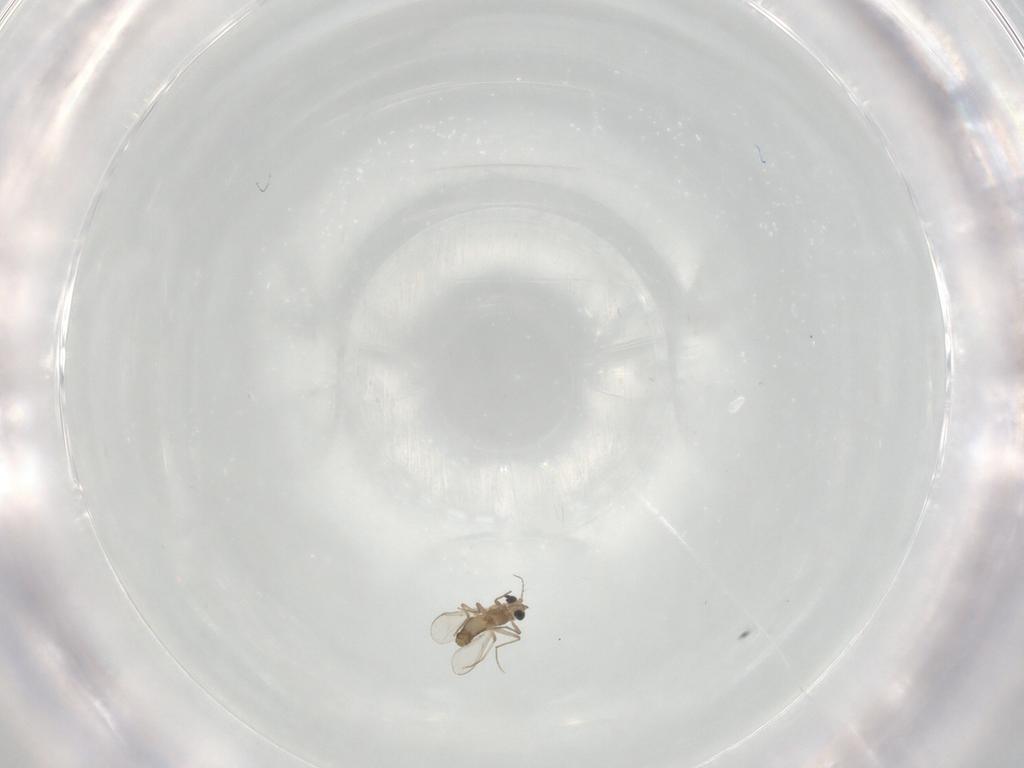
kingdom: Animalia
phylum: Arthropoda
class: Insecta
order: Diptera
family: Chironomidae
